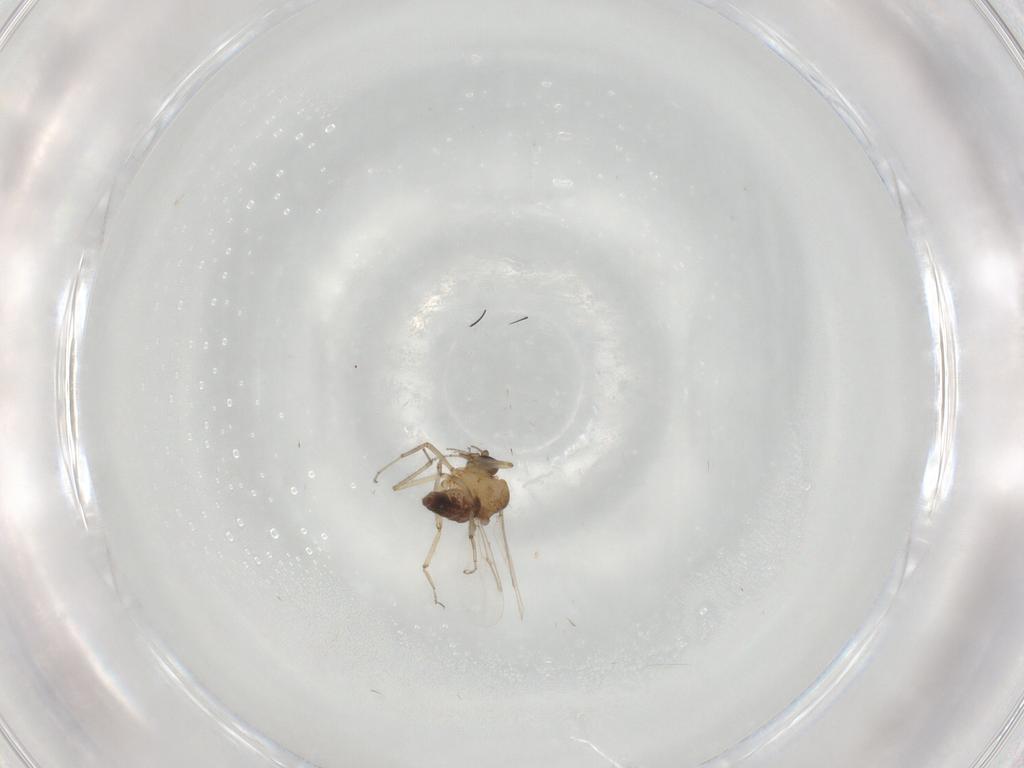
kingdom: Animalia
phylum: Arthropoda
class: Insecta
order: Diptera
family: Ceratopogonidae
